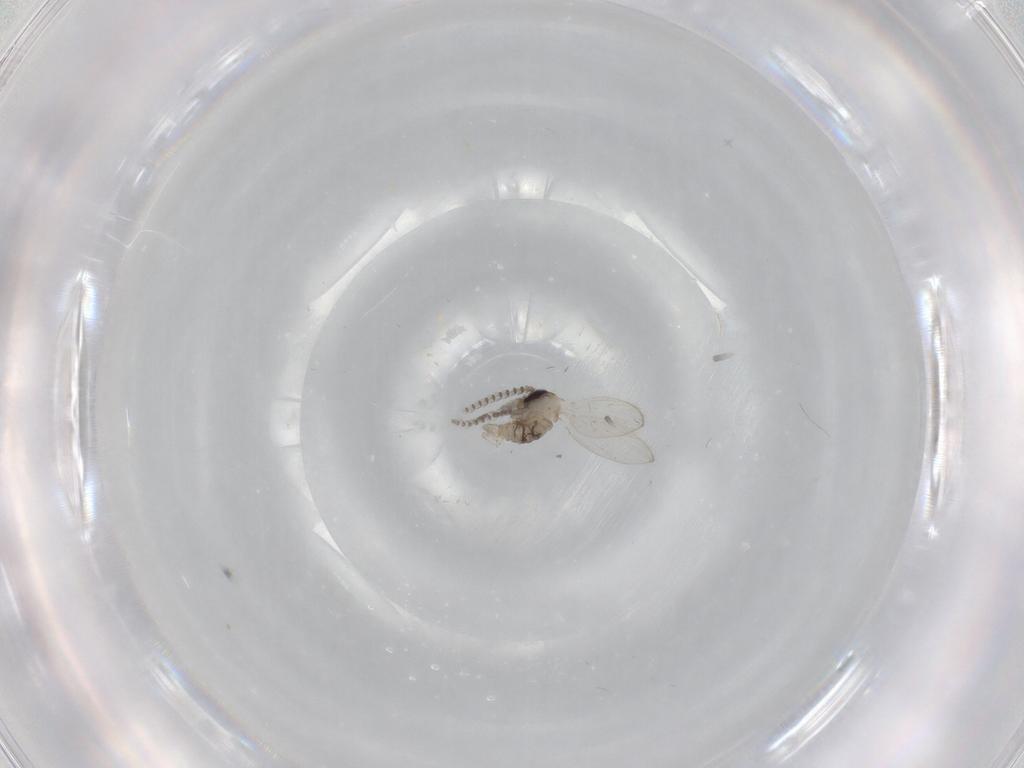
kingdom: Animalia
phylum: Arthropoda
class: Insecta
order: Diptera
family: Psychodidae
